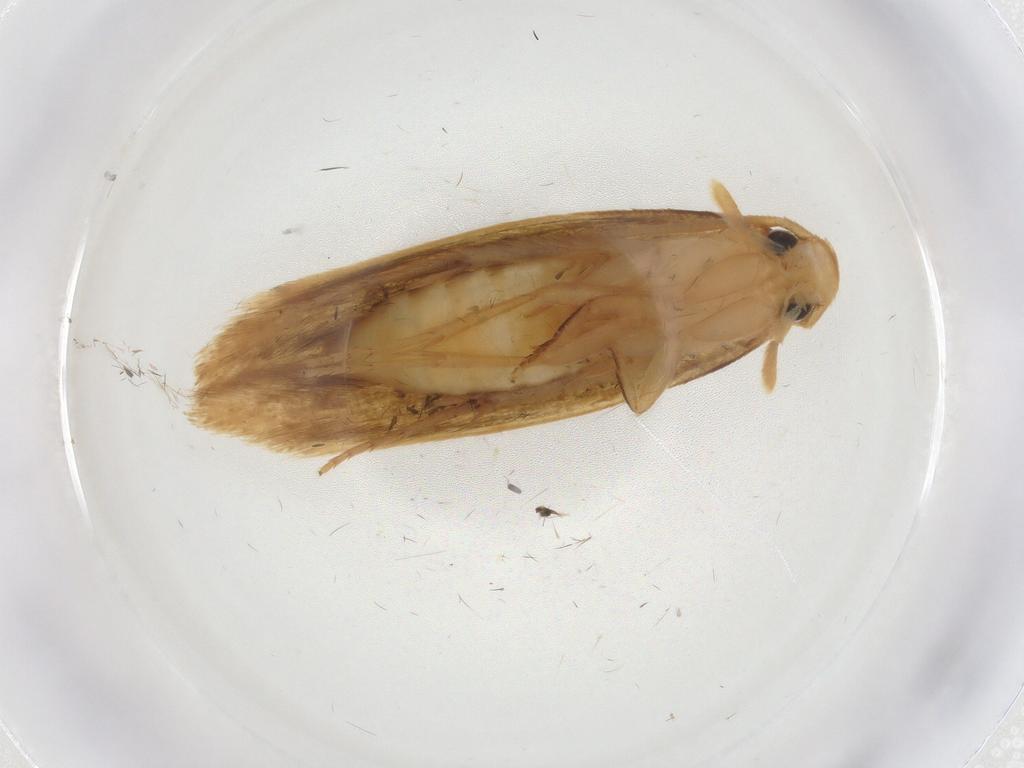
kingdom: Animalia
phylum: Arthropoda
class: Insecta
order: Lepidoptera
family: Tineidae
